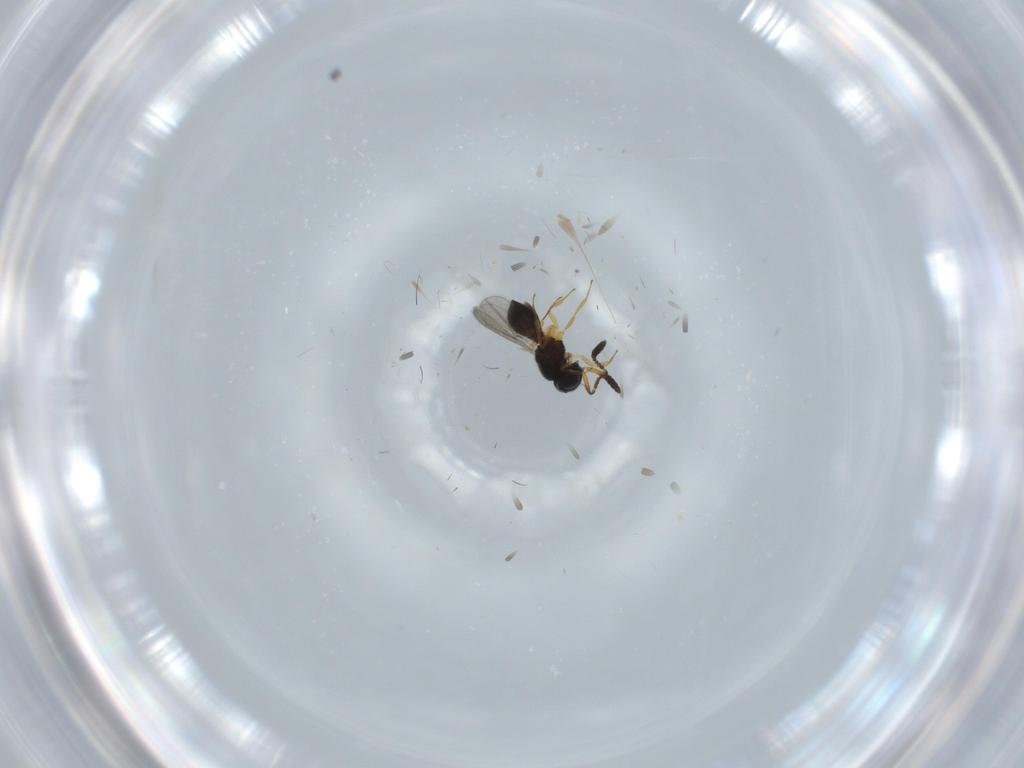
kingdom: Animalia
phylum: Arthropoda
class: Insecta
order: Hymenoptera
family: Scelionidae
